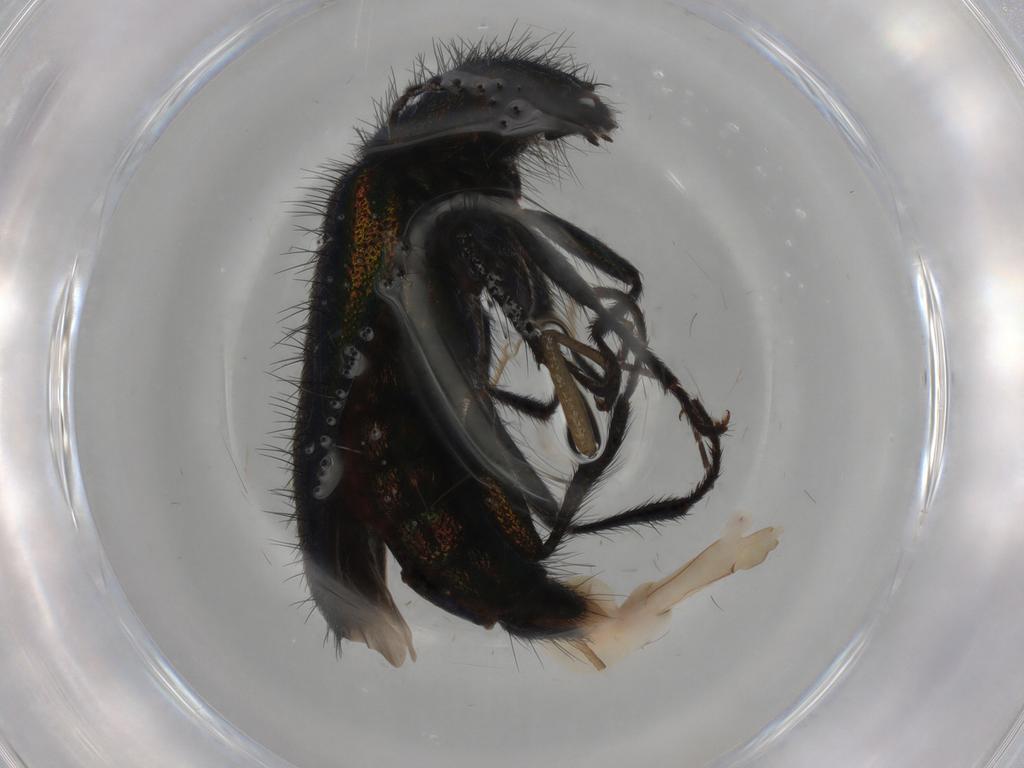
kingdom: Animalia
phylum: Arthropoda
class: Insecta
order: Coleoptera
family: Melyridae
